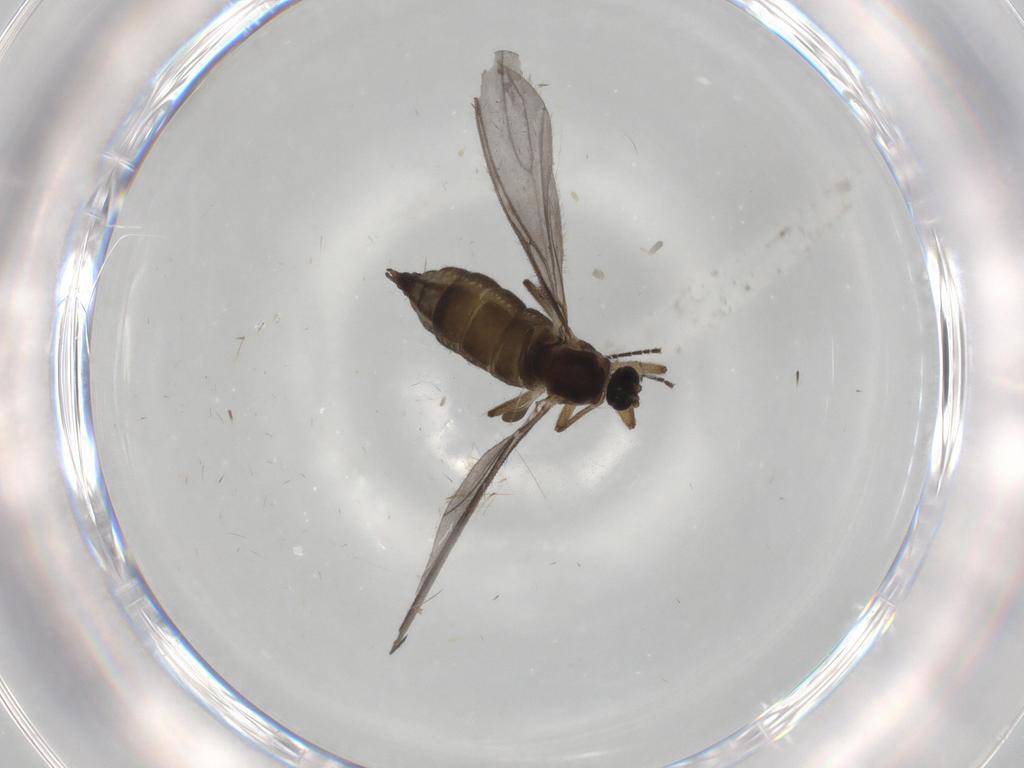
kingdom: Animalia
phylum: Arthropoda
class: Insecta
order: Diptera
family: Sciaridae
